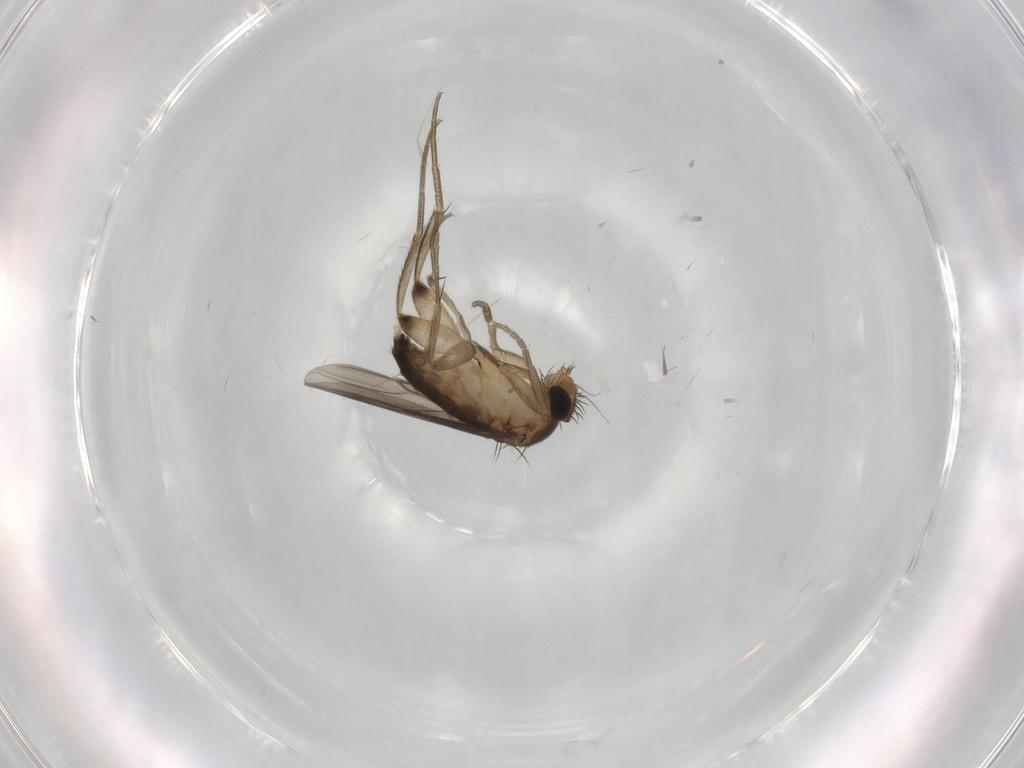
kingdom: Animalia
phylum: Arthropoda
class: Insecta
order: Diptera
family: Phoridae
